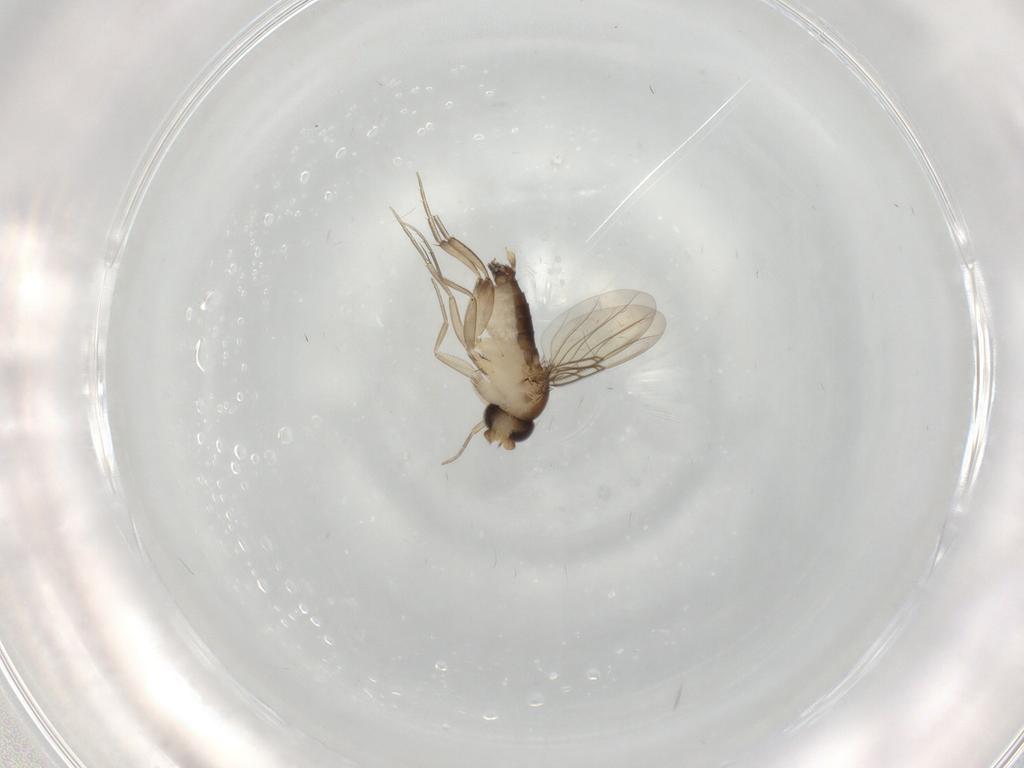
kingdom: Animalia
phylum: Arthropoda
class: Insecta
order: Diptera
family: Phoridae
